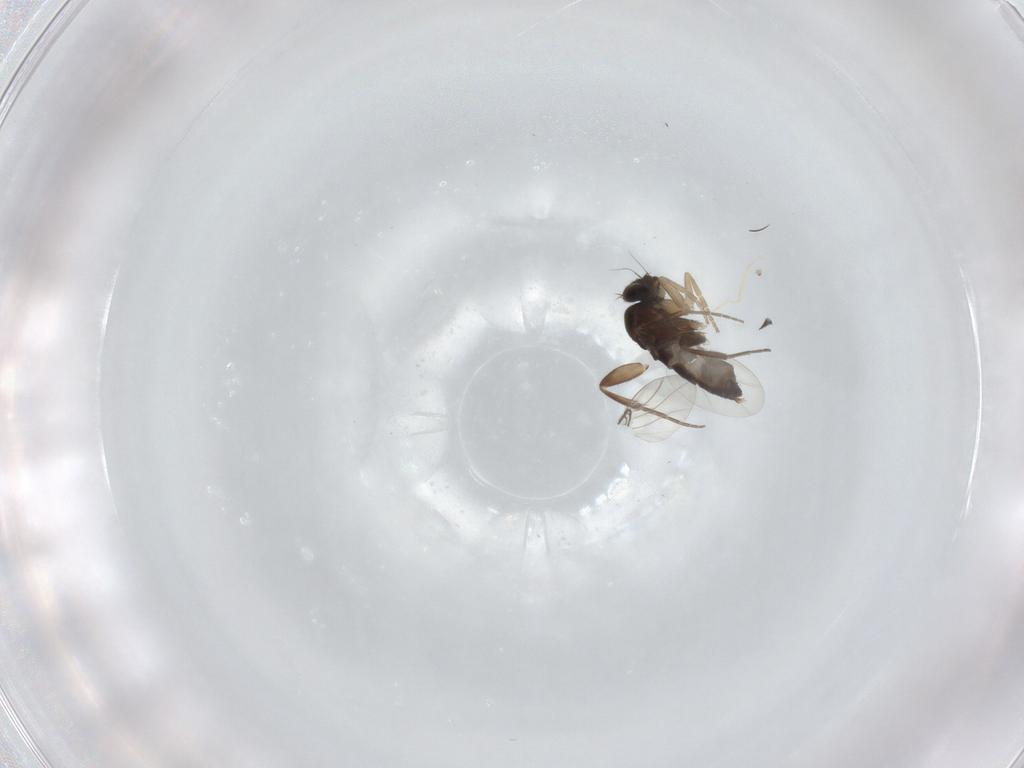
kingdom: Animalia
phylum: Arthropoda
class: Insecta
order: Diptera
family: Phoridae
